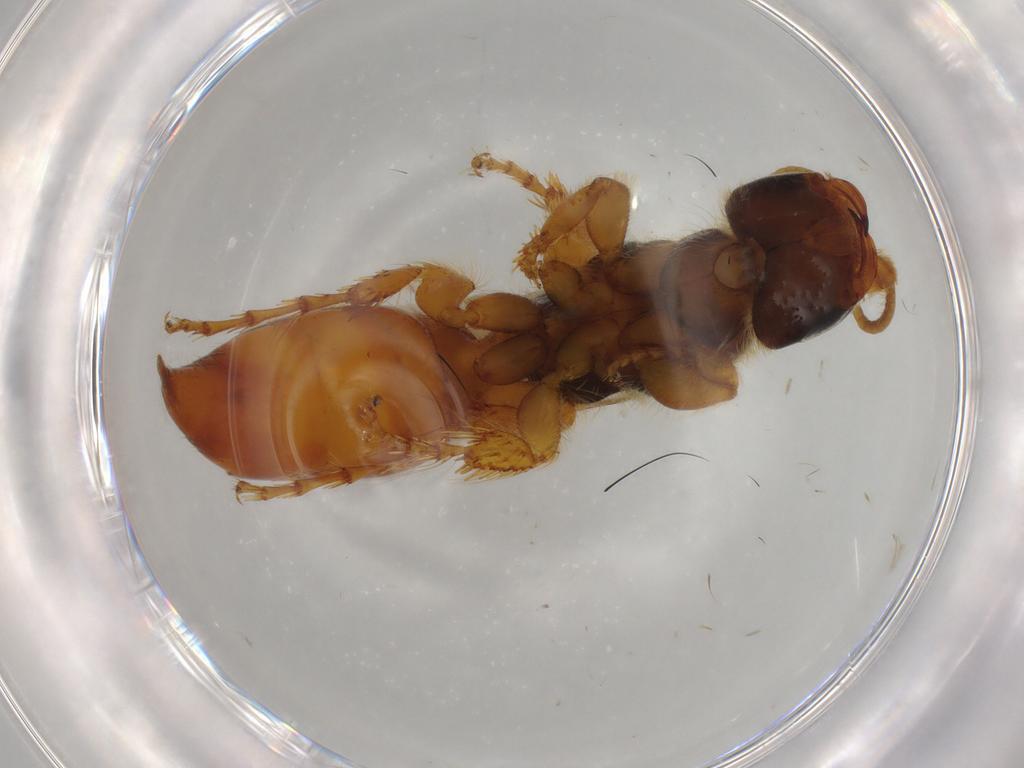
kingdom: Animalia
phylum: Arthropoda
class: Insecta
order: Hymenoptera
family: Thynnidae
